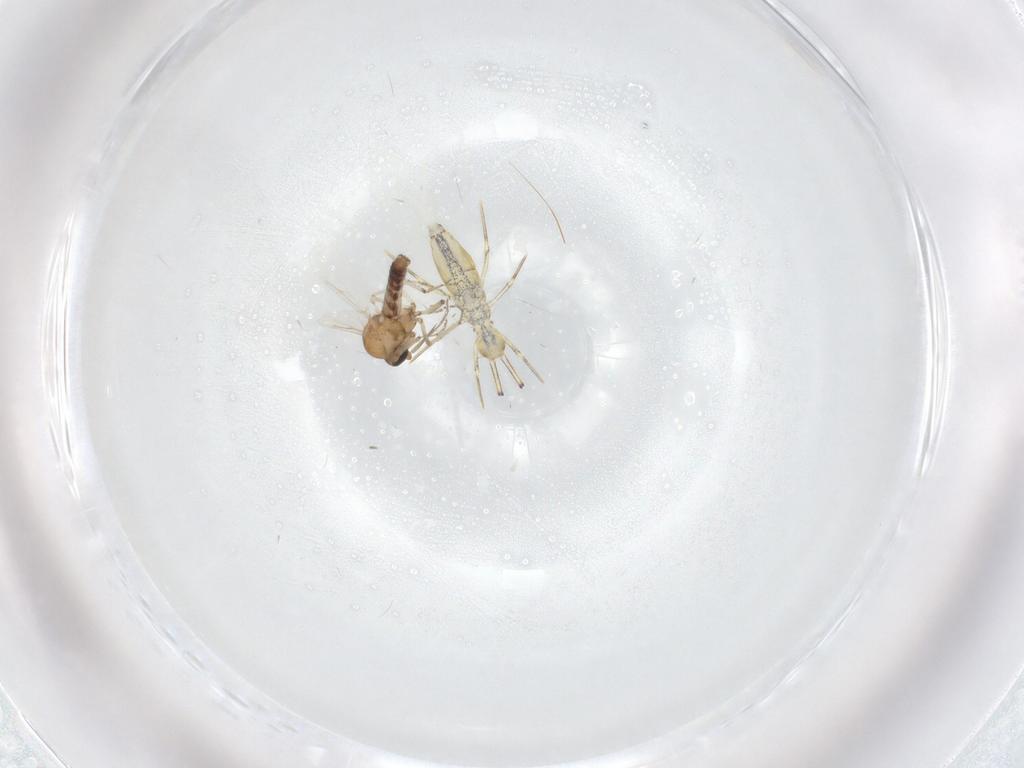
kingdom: Animalia
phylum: Arthropoda
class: Insecta
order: Diptera
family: Ceratopogonidae
